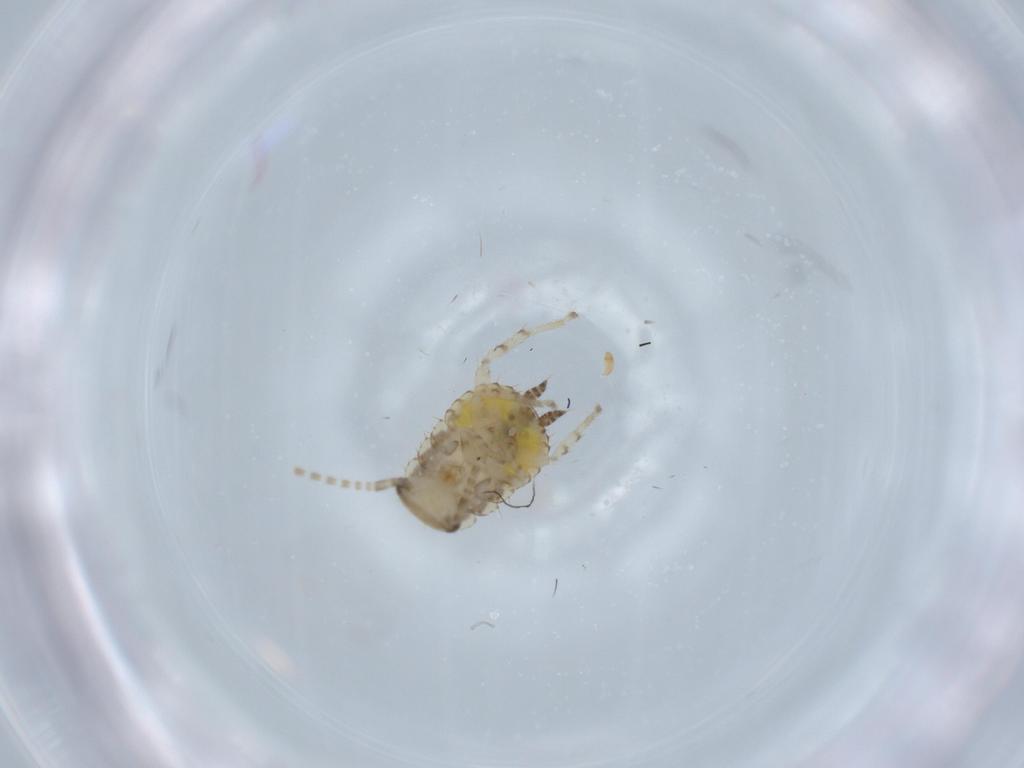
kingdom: Animalia
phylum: Arthropoda
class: Insecta
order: Blattodea
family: Ectobiidae
